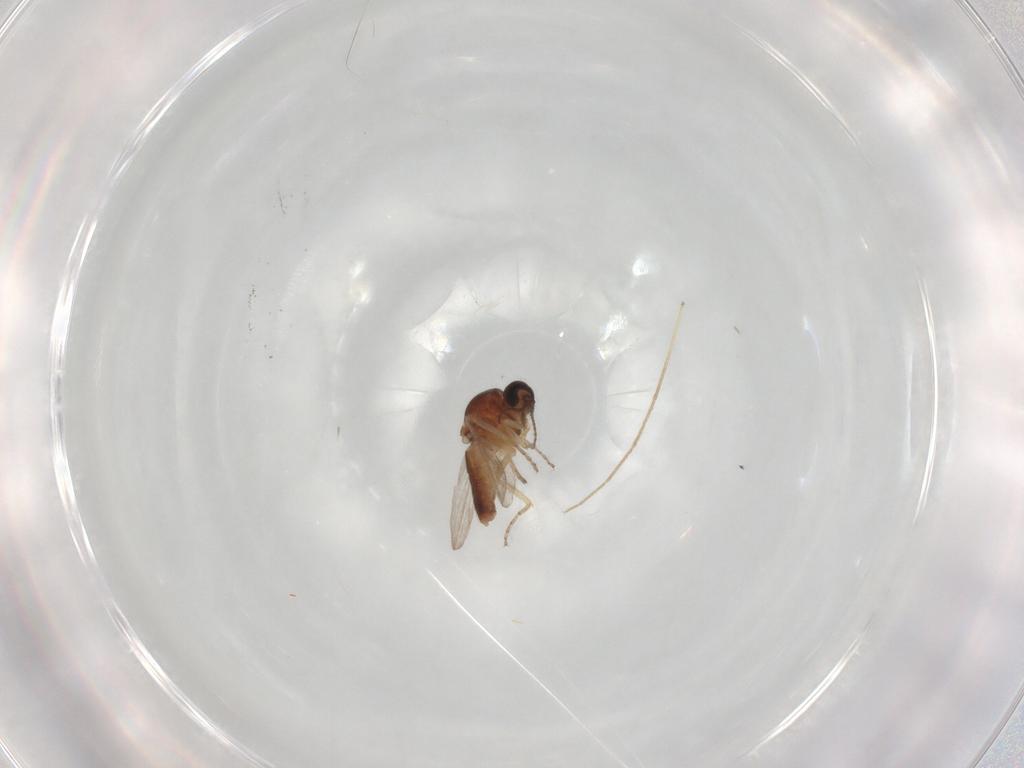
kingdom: Animalia
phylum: Arthropoda
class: Insecta
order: Diptera
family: Ceratopogonidae
